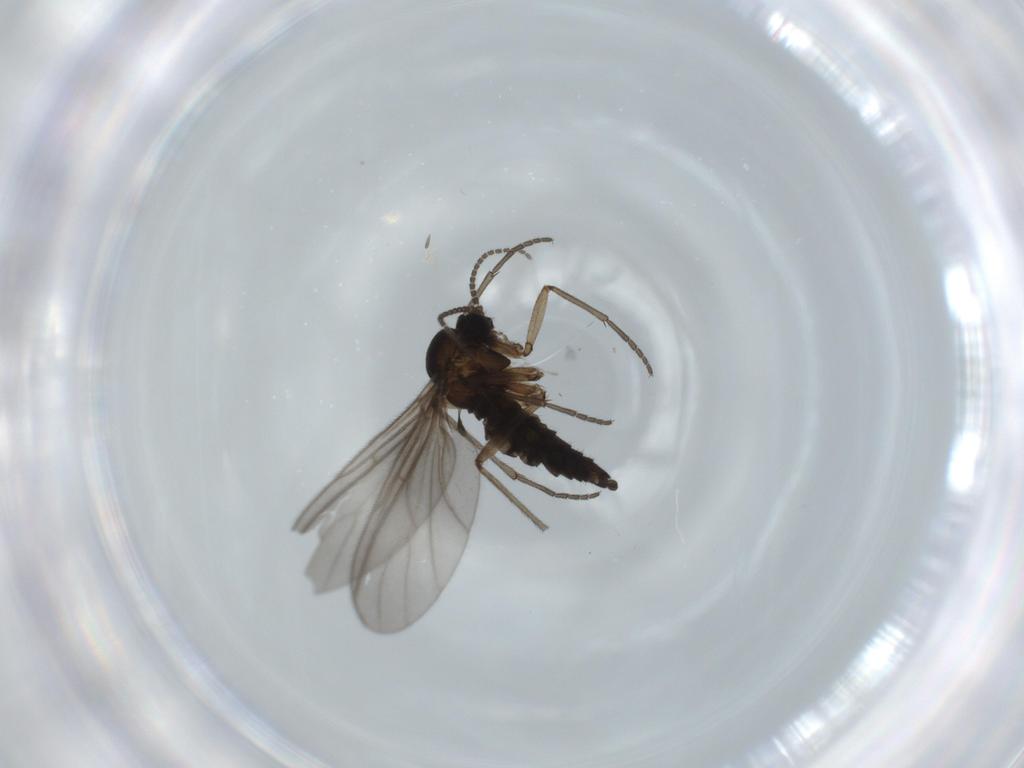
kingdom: Animalia
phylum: Arthropoda
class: Insecta
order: Diptera
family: Sciaridae
